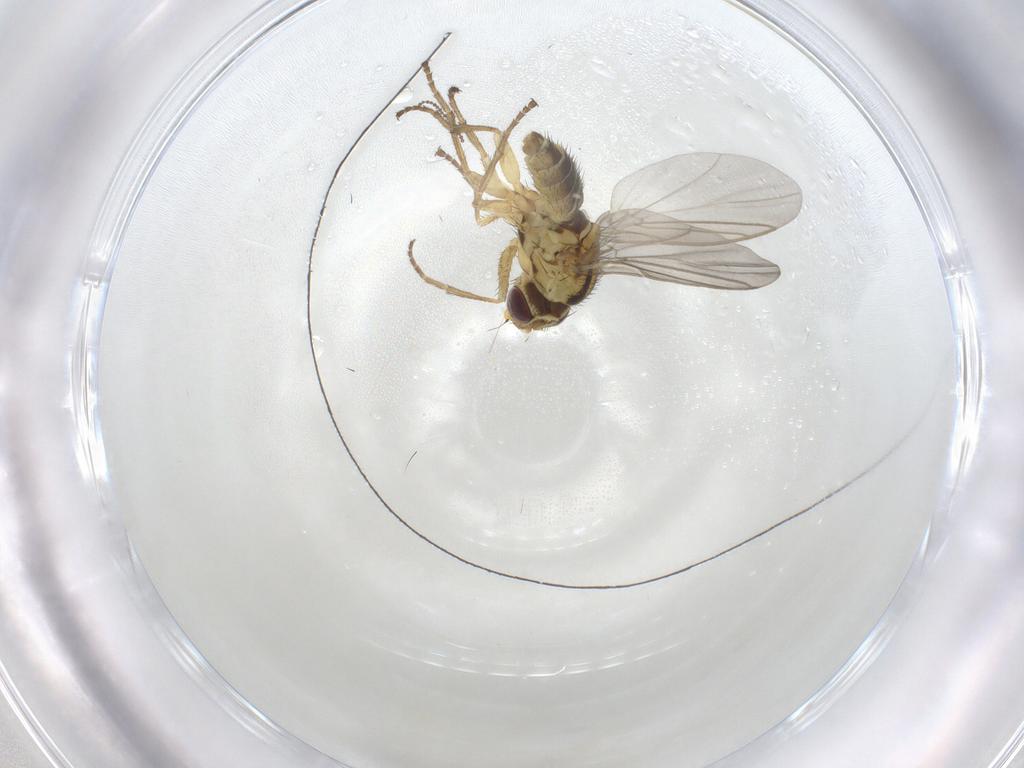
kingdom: Animalia
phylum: Arthropoda
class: Insecta
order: Diptera
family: Agromyzidae
